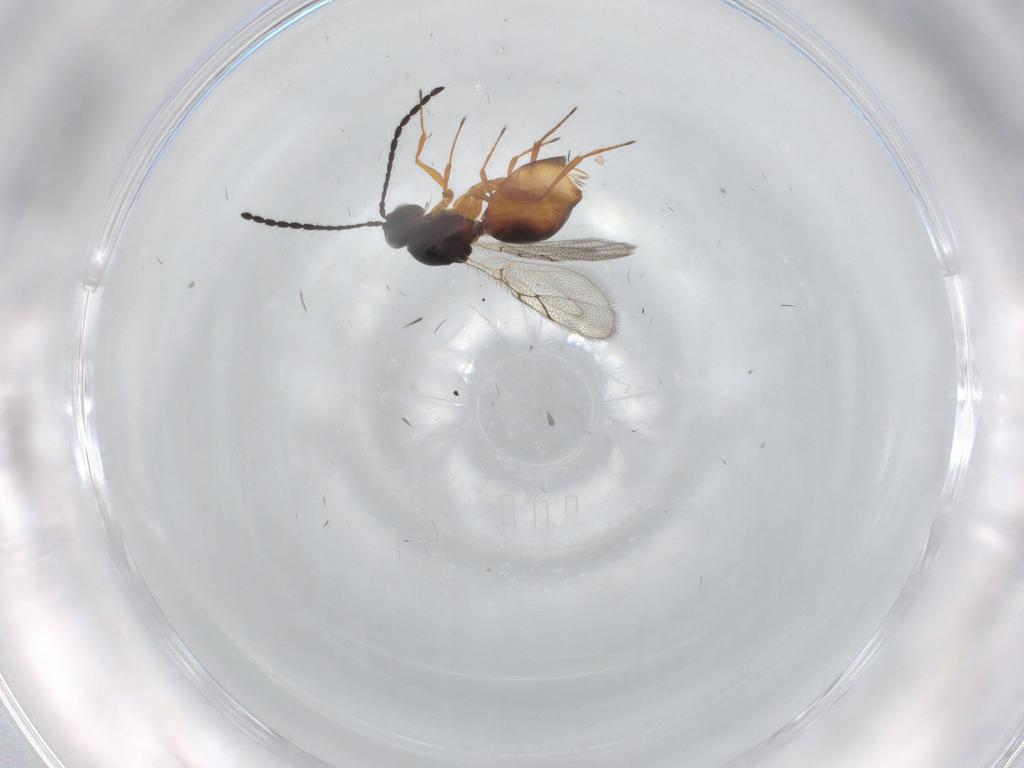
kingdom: Animalia
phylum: Arthropoda
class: Insecta
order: Hymenoptera
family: Figitidae
